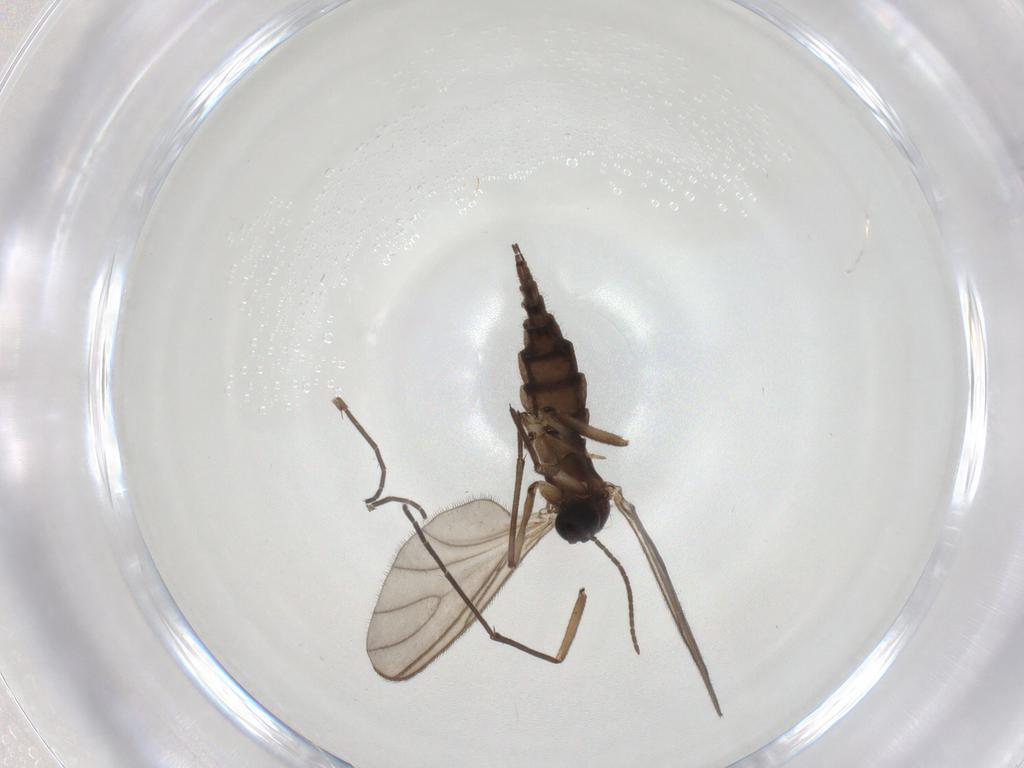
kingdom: Animalia
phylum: Arthropoda
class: Insecta
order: Diptera
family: Sciaridae
